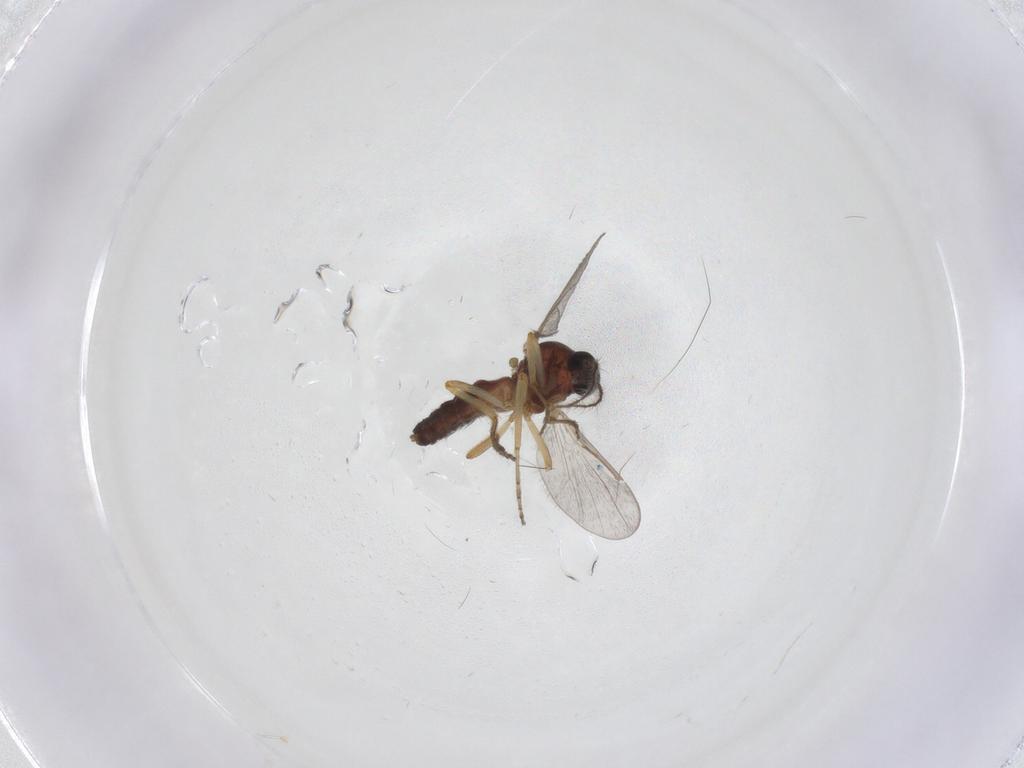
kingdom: Animalia
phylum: Arthropoda
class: Insecta
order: Diptera
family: Ceratopogonidae
